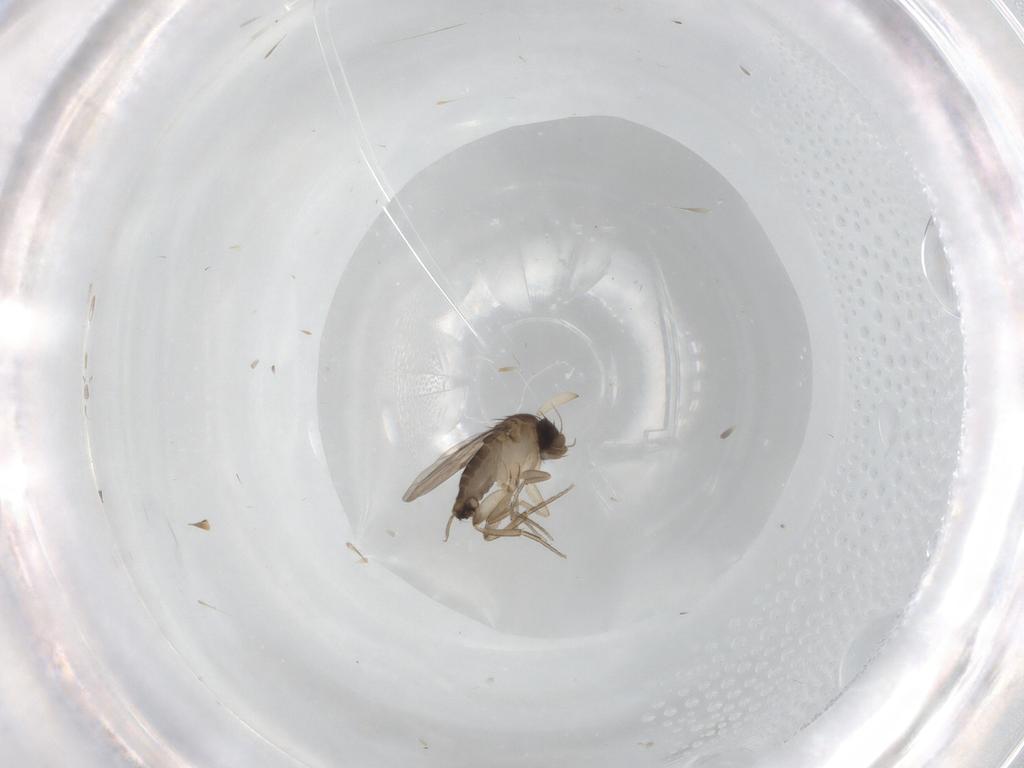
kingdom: Animalia
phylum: Arthropoda
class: Insecta
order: Diptera
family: Phoridae
